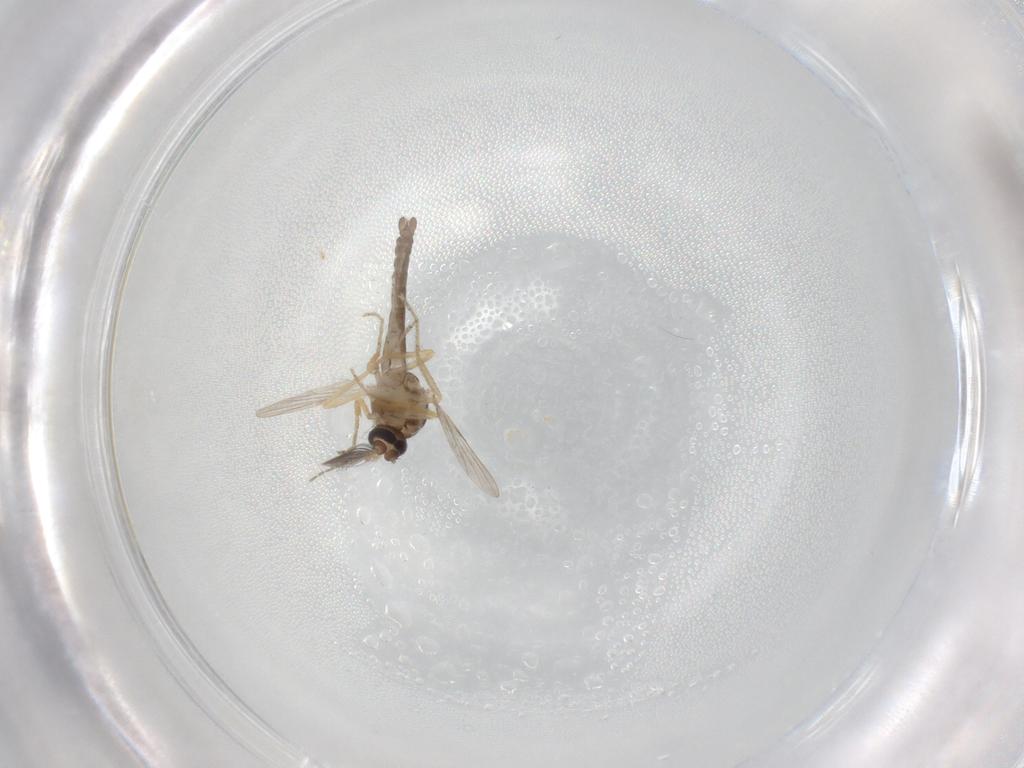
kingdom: Animalia
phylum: Arthropoda
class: Insecta
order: Diptera
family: Ceratopogonidae
